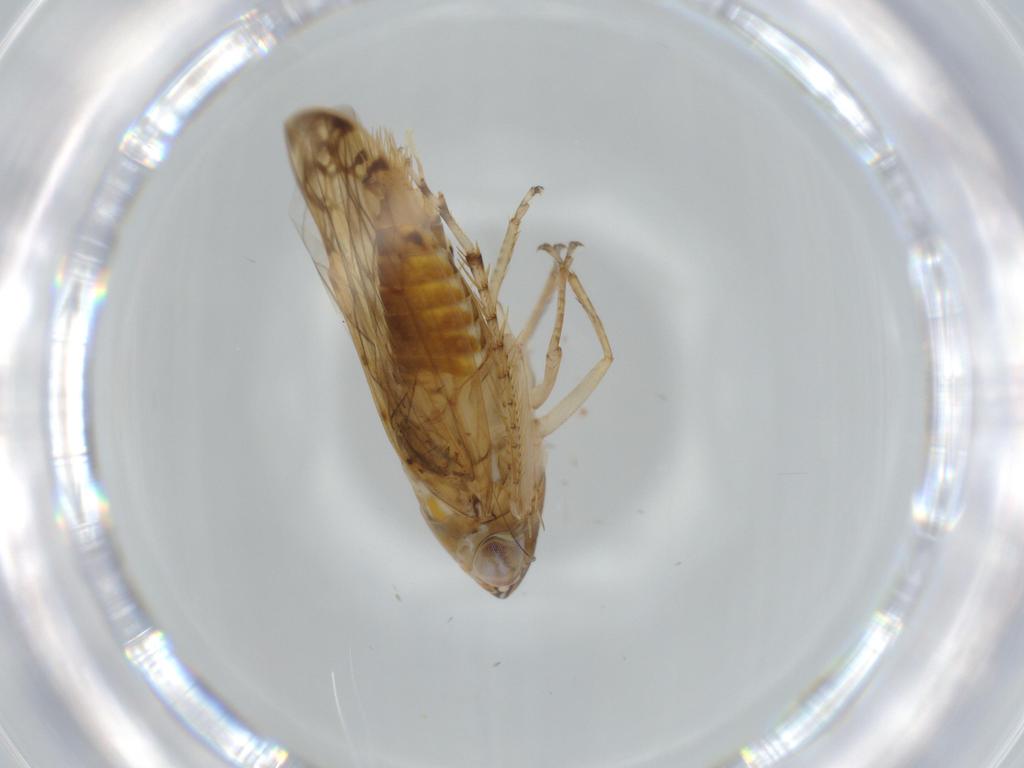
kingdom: Animalia
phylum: Arthropoda
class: Insecta
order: Hemiptera
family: Cicadellidae
